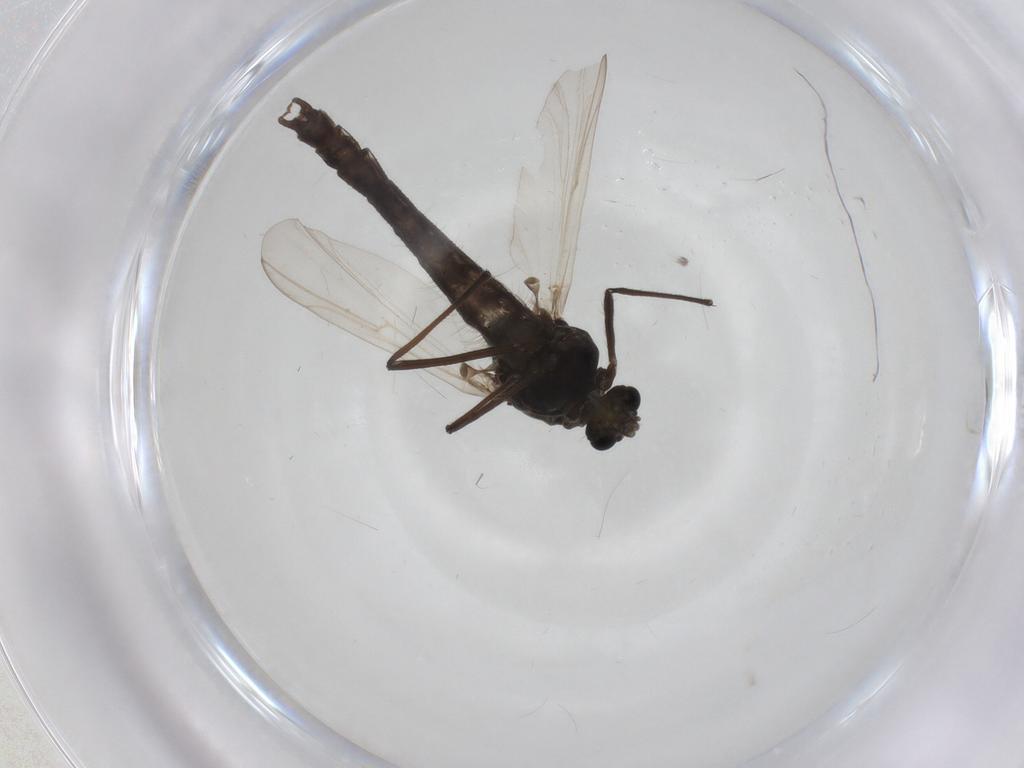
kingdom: Animalia
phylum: Arthropoda
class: Insecta
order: Diptera
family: Chironomidae
